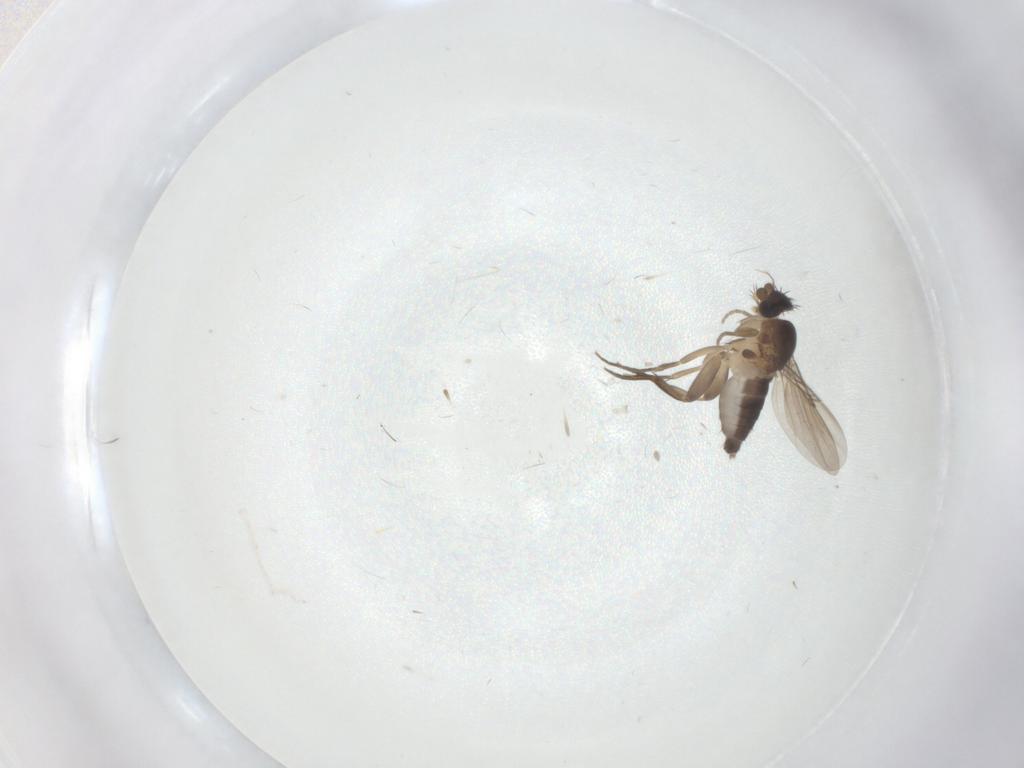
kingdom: Animalia
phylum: Arthropoda
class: Insecta
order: Diptera
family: Phoridae
